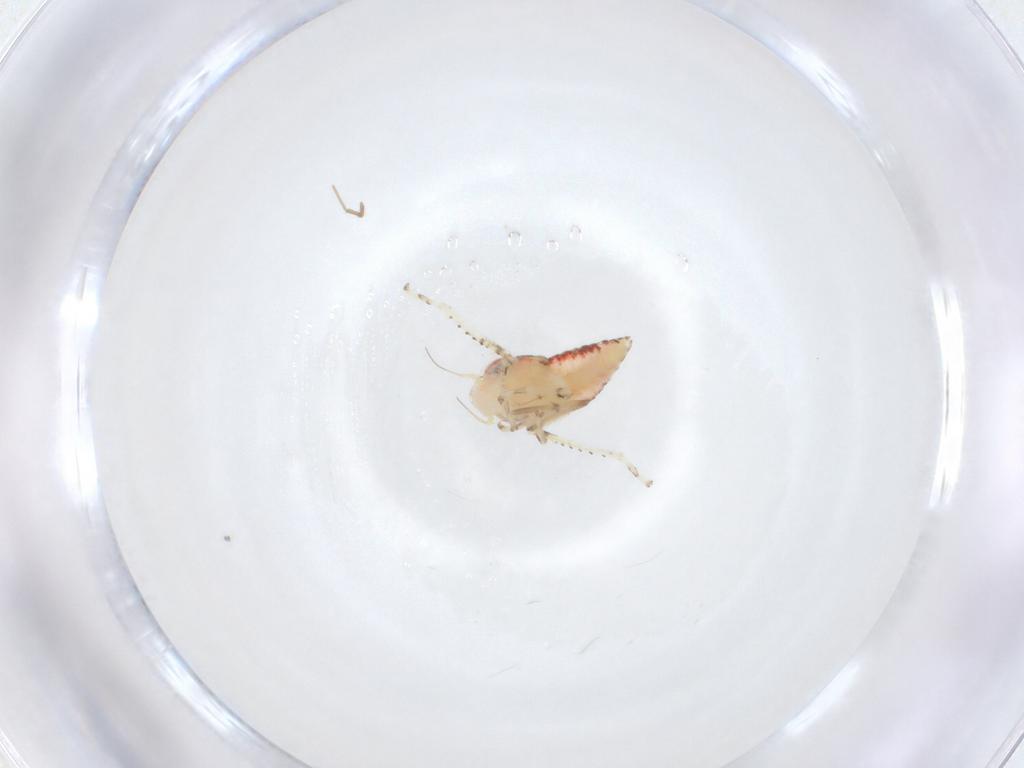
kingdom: Animalia
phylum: Arthropoda
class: Insecta
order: Hemiptera
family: Cicadellidae
